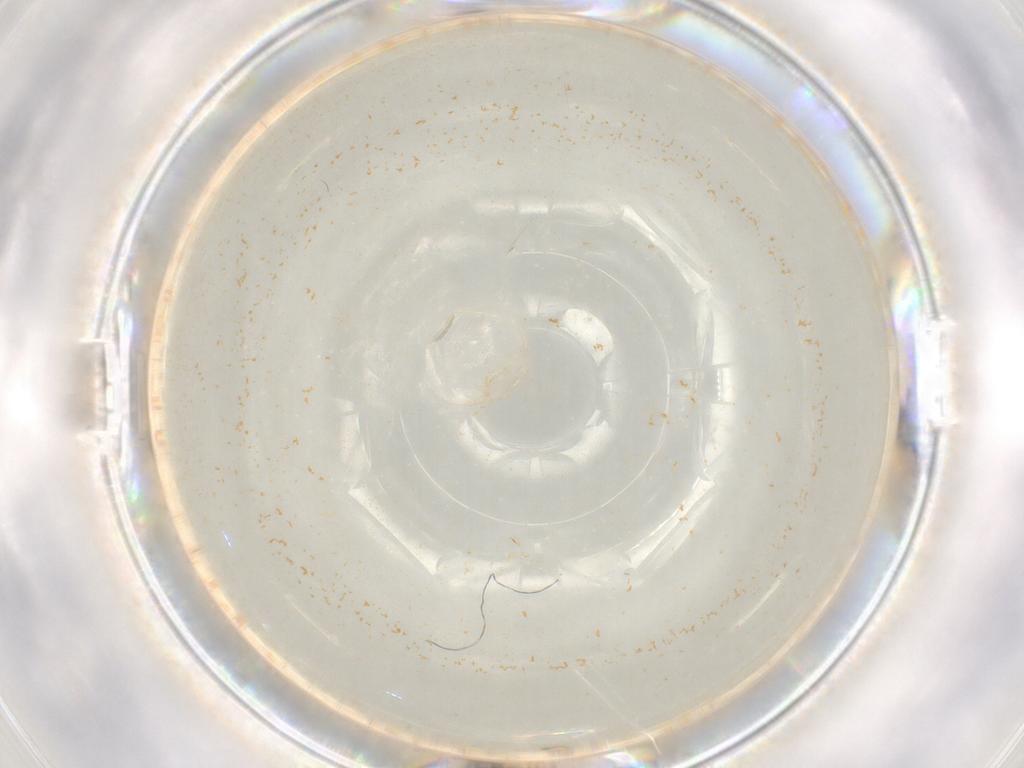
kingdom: Animalia
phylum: Arthropoda
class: Insecta
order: Hymenoptera
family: Scelionidae
